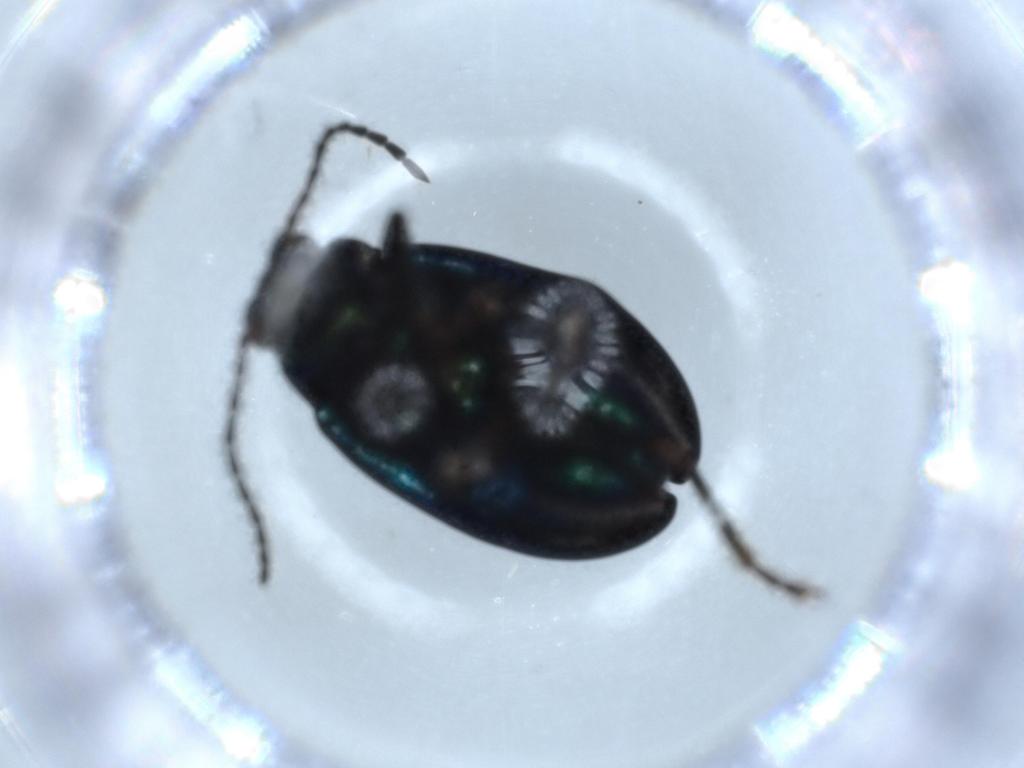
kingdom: Animalia
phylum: Arthropoda
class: Insecta
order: Coleoptera
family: Chrysomelidae
